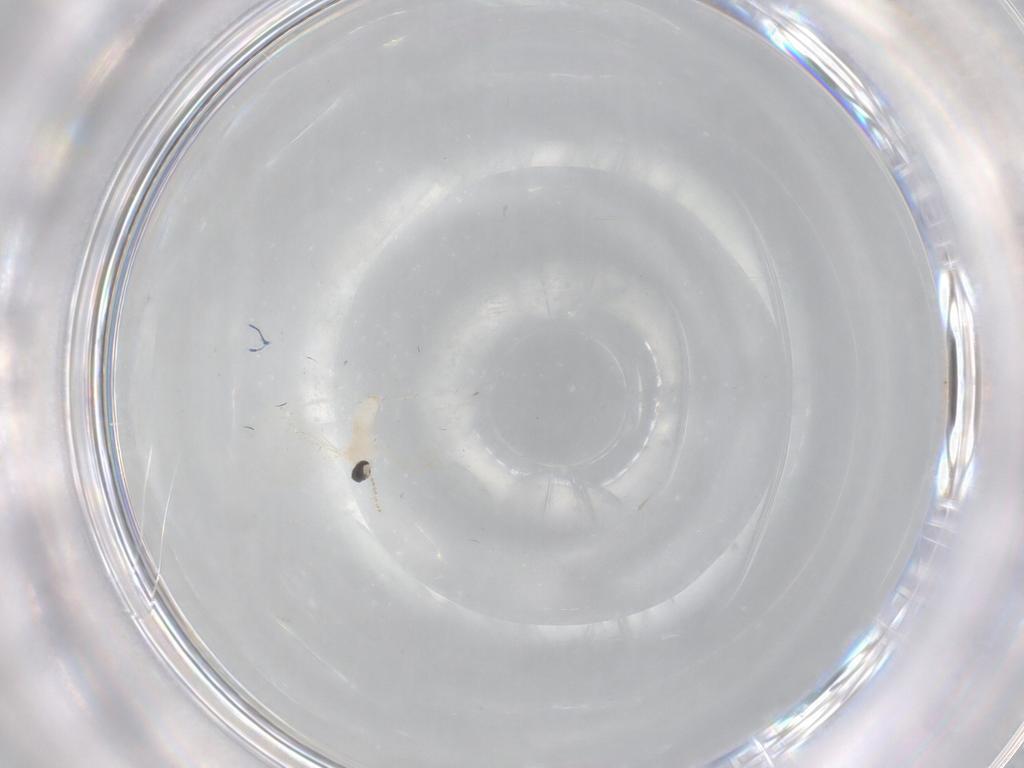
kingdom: Animalia
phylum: Arthropoda
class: Insecta
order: Diptera
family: Cecidomyiidae
